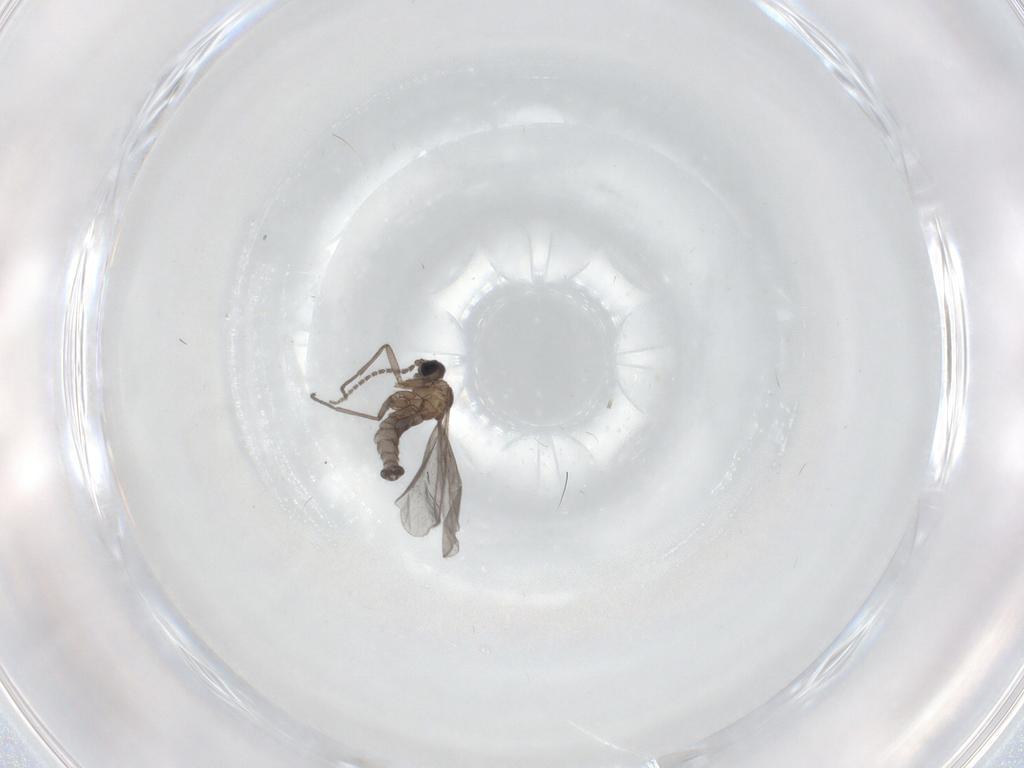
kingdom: Animalia
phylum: Arthropoda
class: Insecta
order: Diptera
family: Sciaridae
